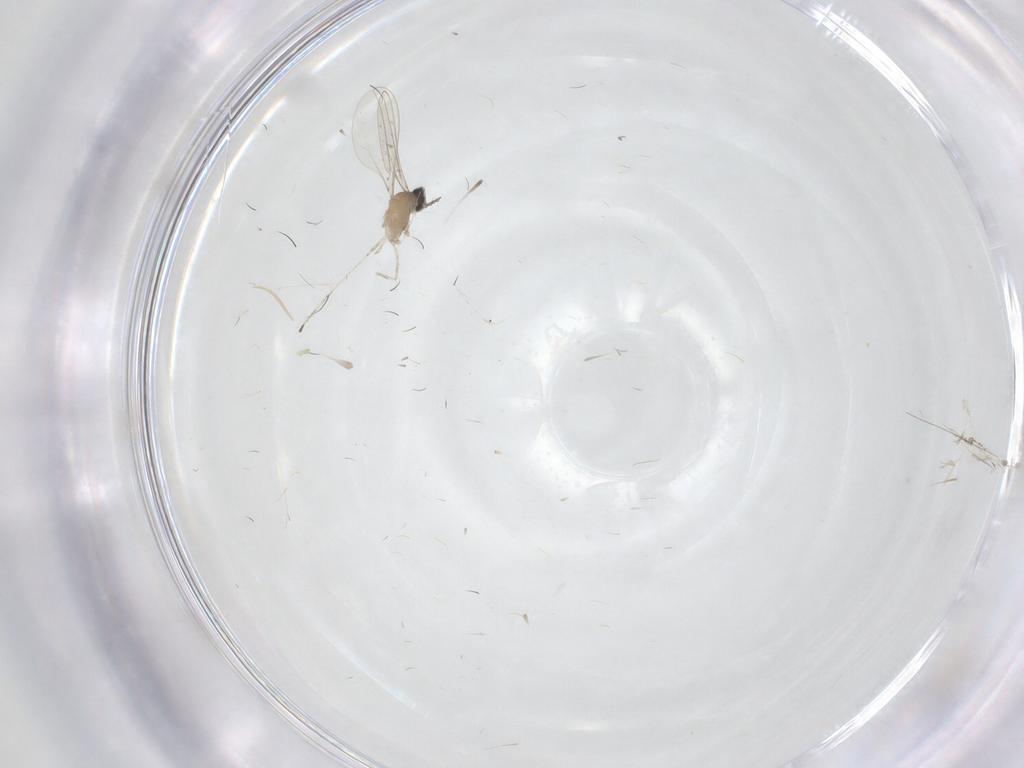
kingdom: Animalia
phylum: Arthropoda
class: Insecta
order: Diptera
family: Cecidomyiidae
